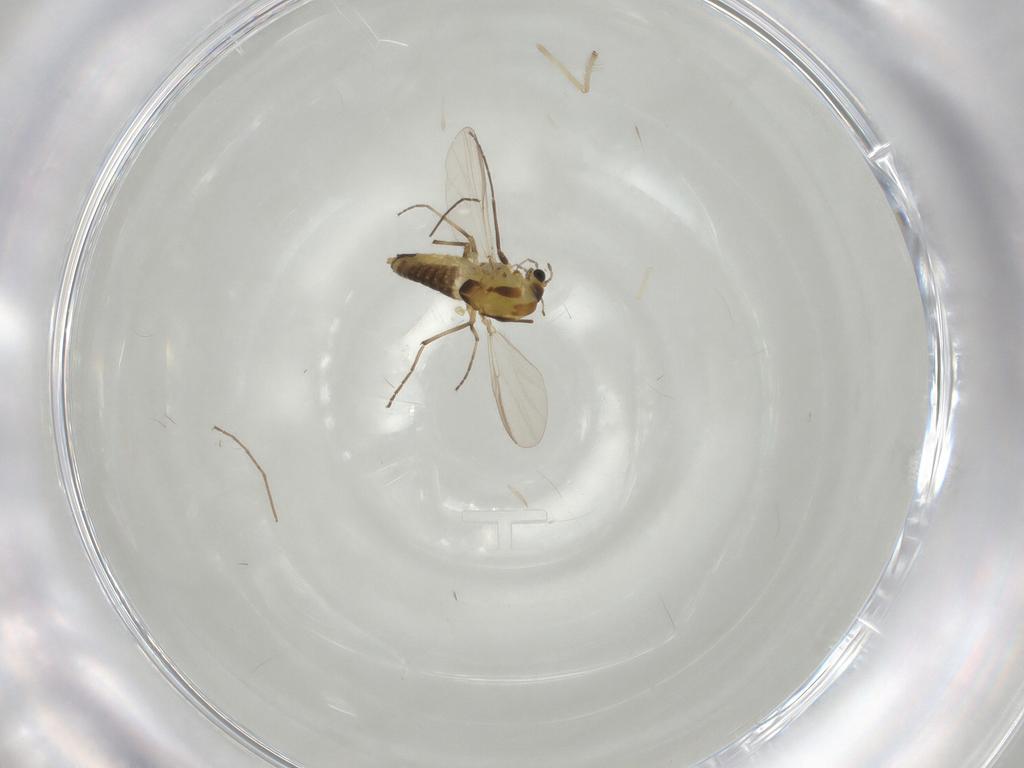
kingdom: Animalia
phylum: Arthropoda
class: Insecta
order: Diptera
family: Chironomidae
